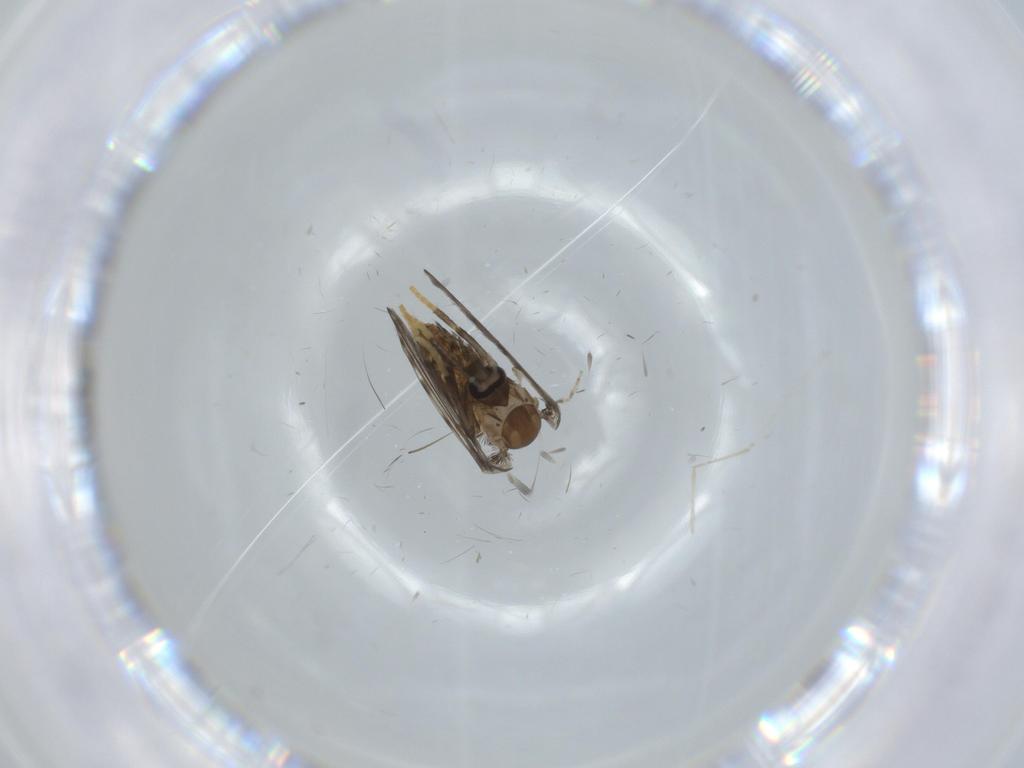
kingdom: Animalia
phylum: Arthropoda
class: Insecta
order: Diptera
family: Psychodidae
